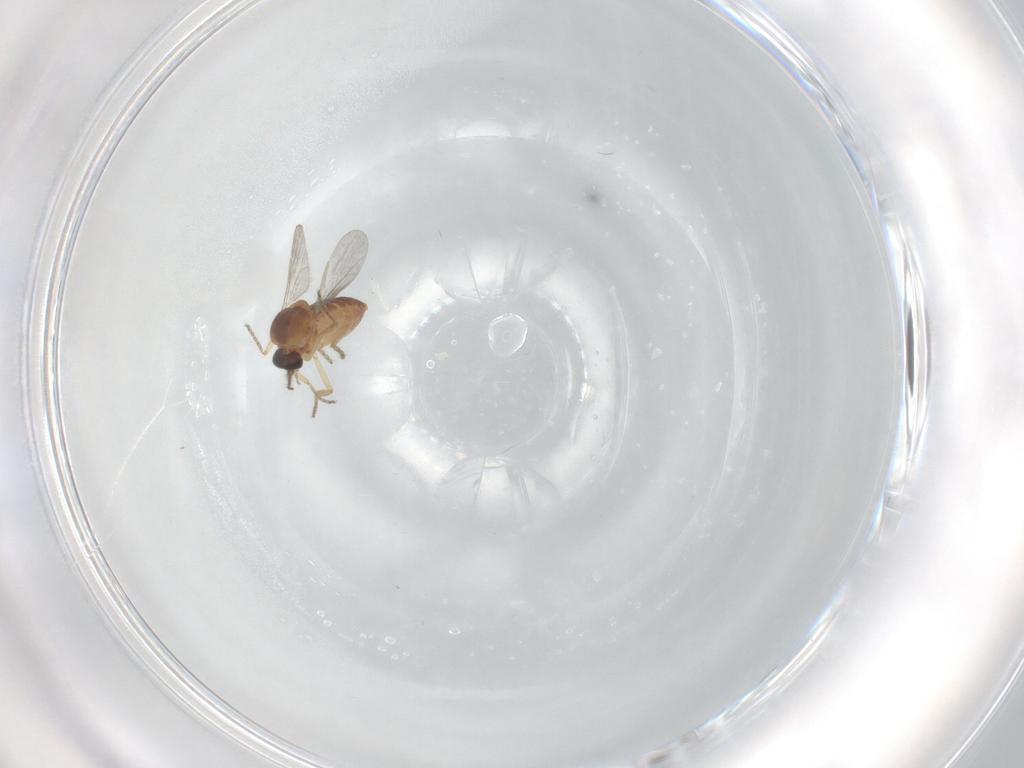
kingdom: Animalia
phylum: Arthropoda
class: Insecta
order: Diptera
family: Ceratopogonidae
